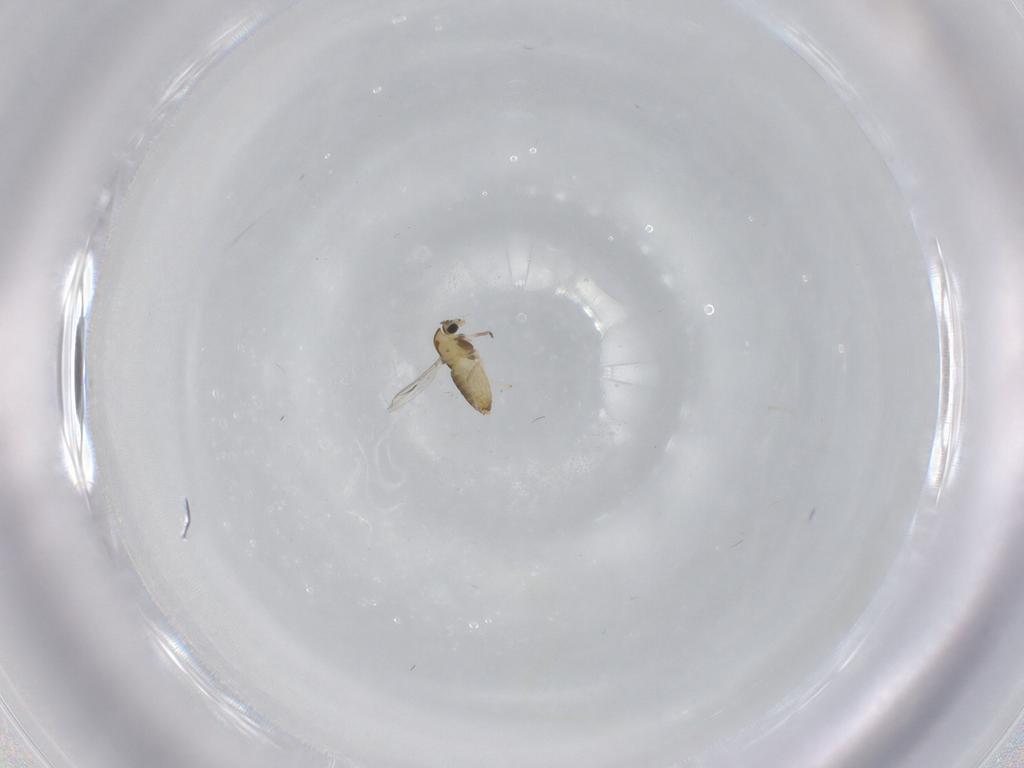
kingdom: Animalia
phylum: Arthropoda
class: Insecta
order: Diptera
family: Chironomidae
